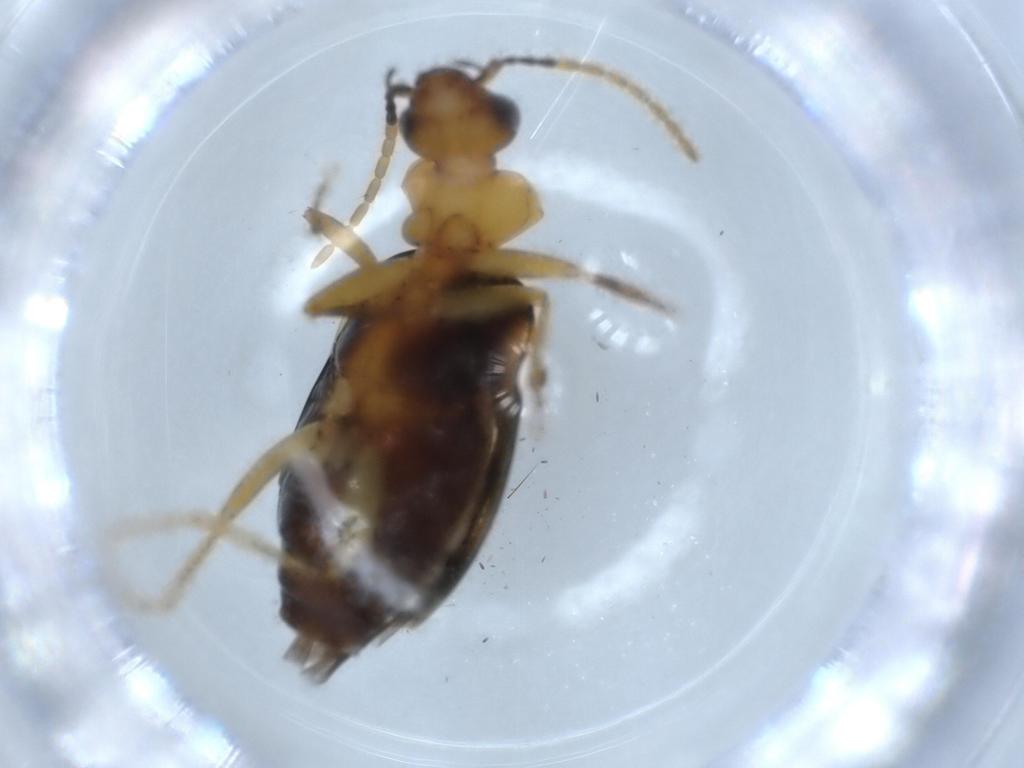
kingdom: Animalia
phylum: Arthropoda
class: Insecta
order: Coleoptera
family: Carabidae
